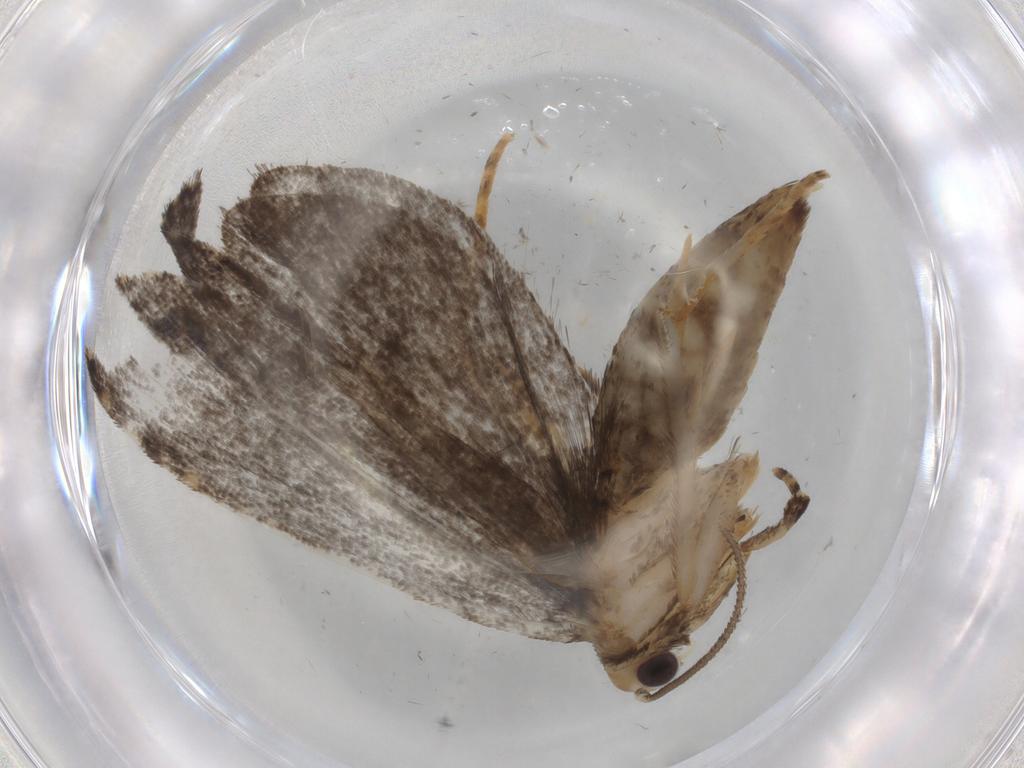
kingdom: Animalia
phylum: Arthropoda
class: Insecta
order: Lepidoptera
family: Tineidae
